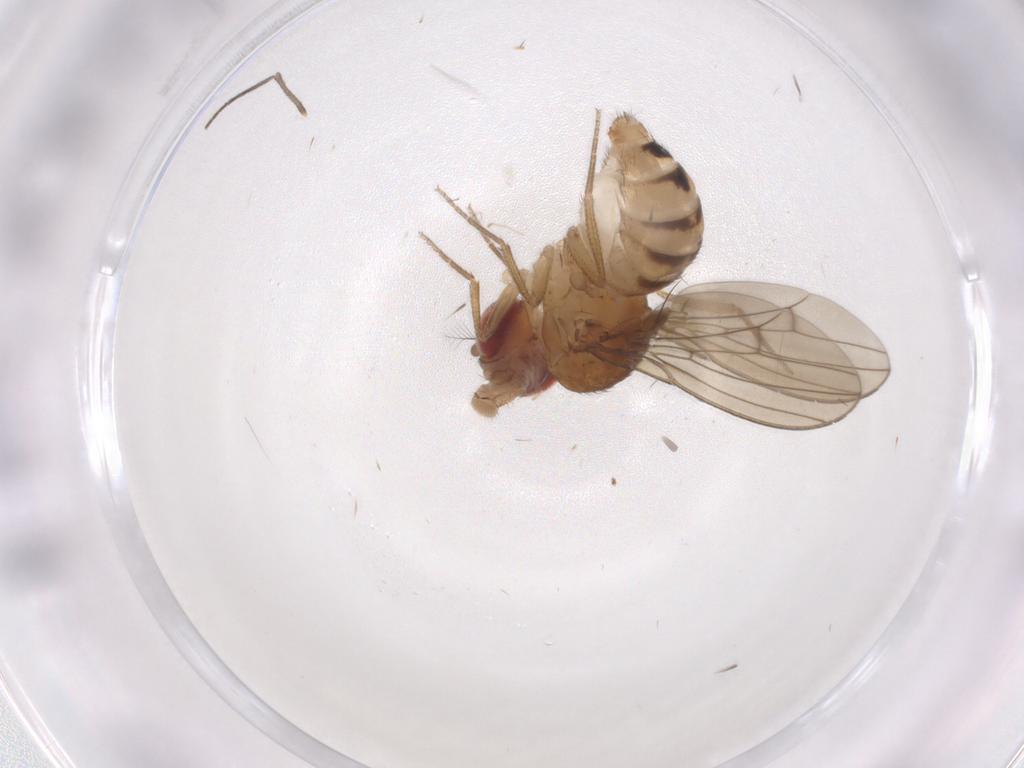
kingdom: Animalia
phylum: Arthropoda
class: Insecta
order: Diptera
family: Drosophilidae
